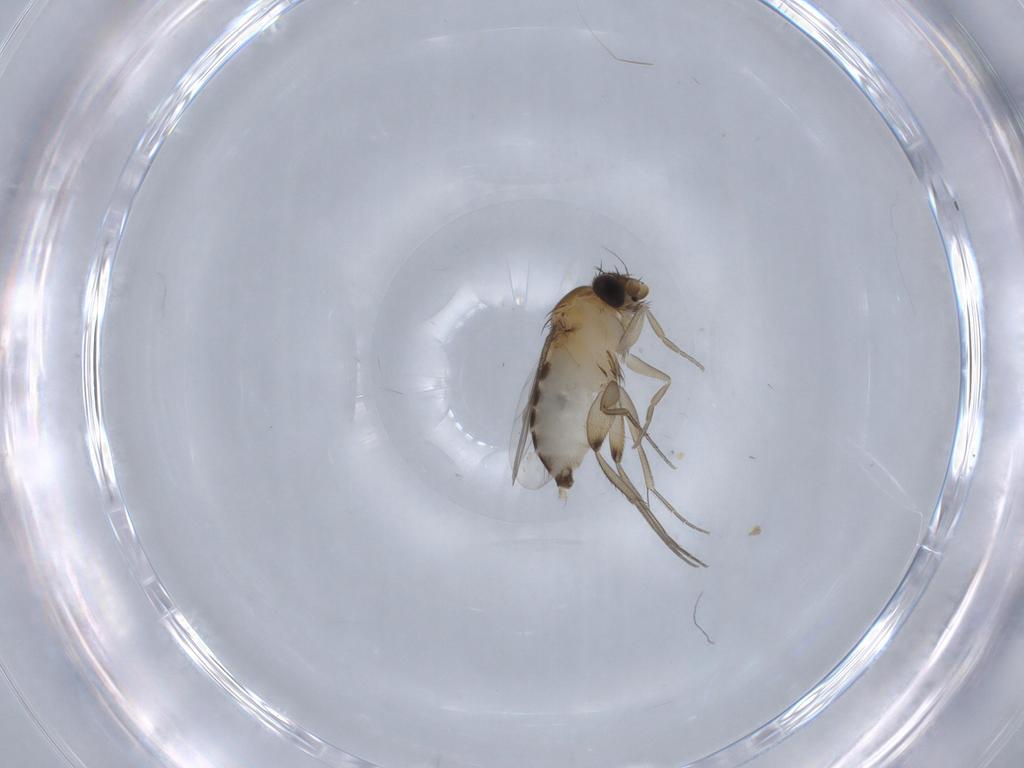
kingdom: Animalia
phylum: Arthropoda
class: Insecta
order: Diptera
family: Phoridae
